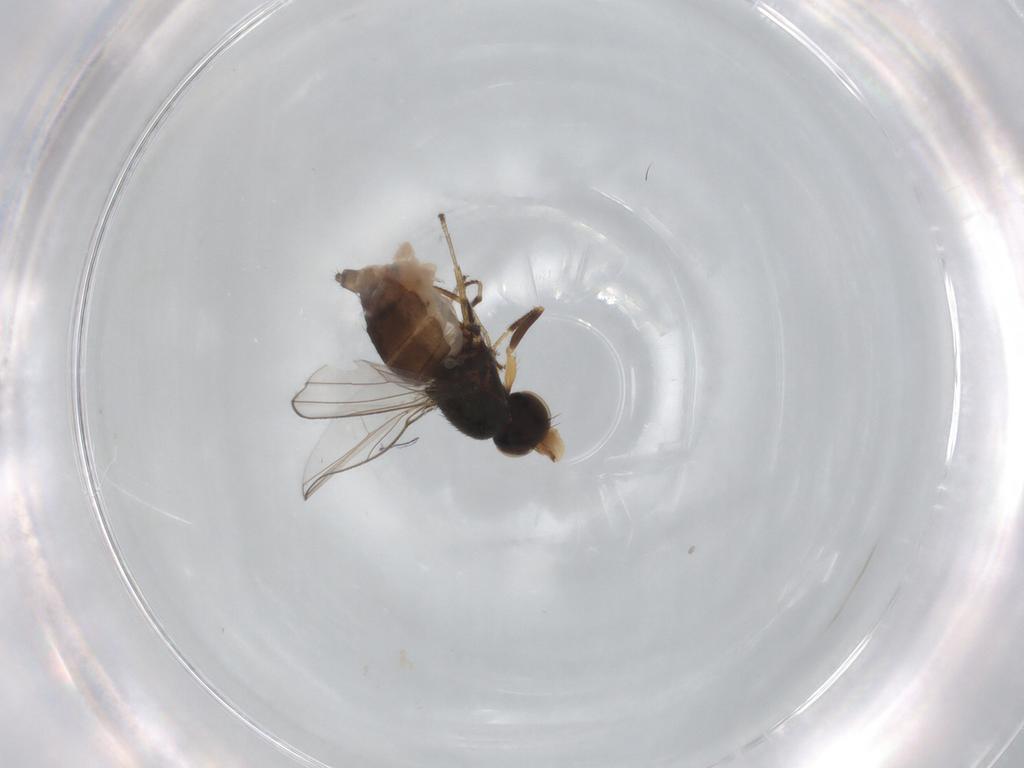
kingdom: Animalia
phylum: Arthropoda
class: Insecta
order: Diptera
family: Ephydridae
